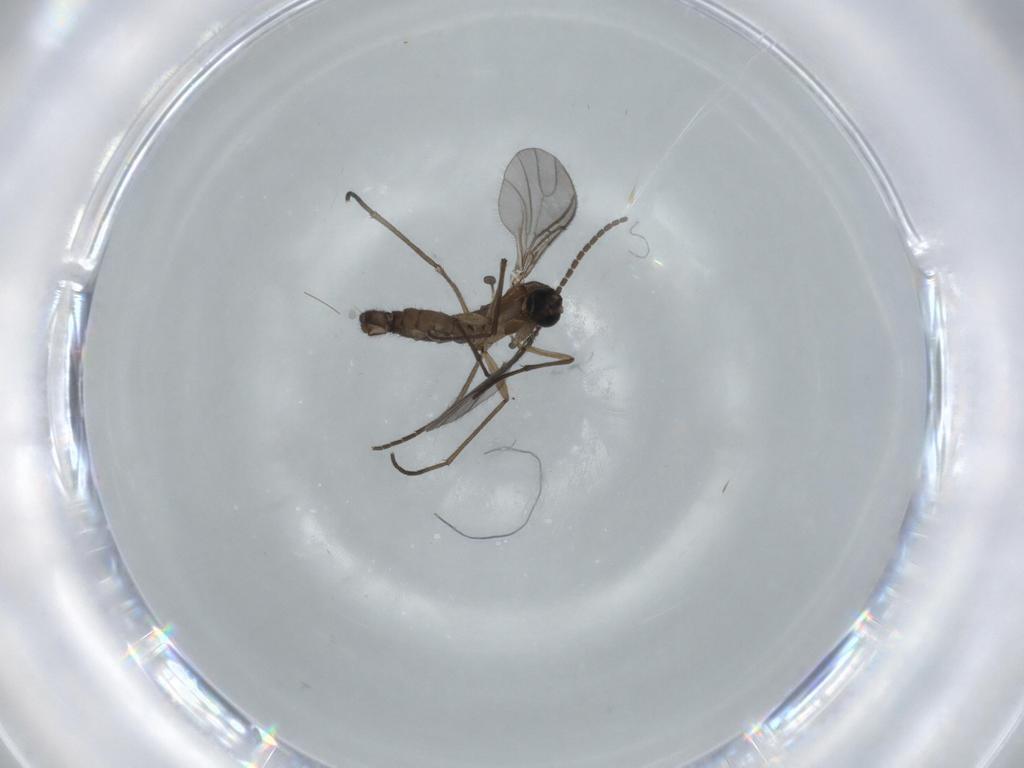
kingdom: Animalia
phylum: Arthropoda
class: Insecta
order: Diptera
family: Sciaridae
